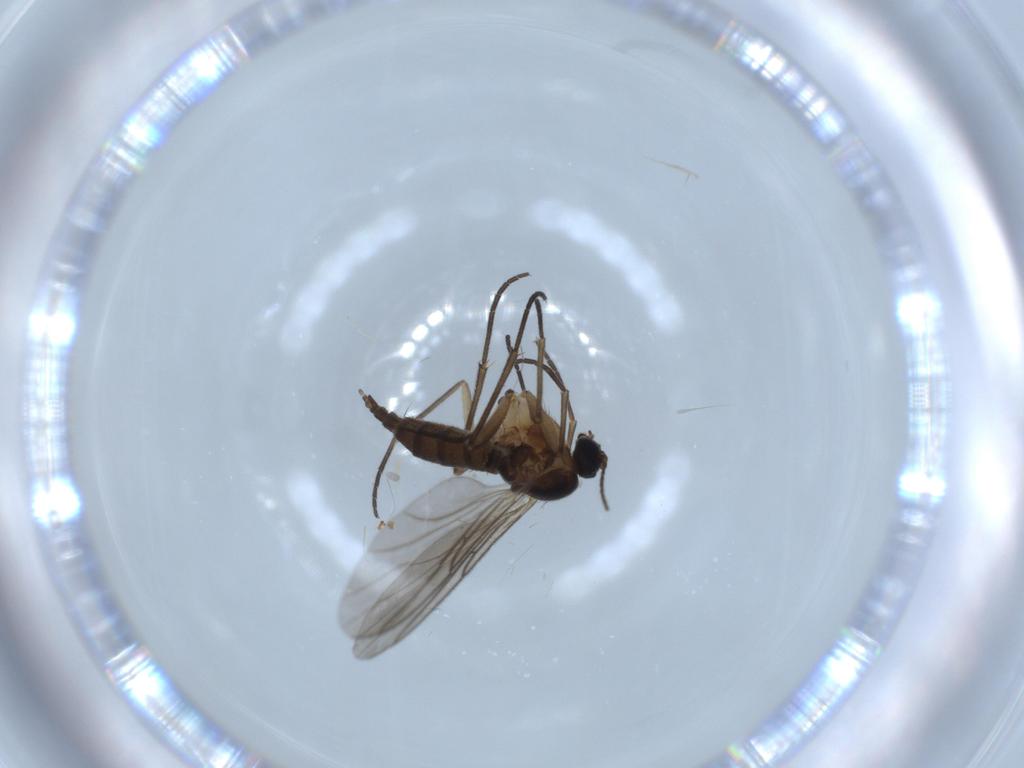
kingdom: Animalia
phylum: Arthropoda
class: Insecta
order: Diptera
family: Sciaridae
